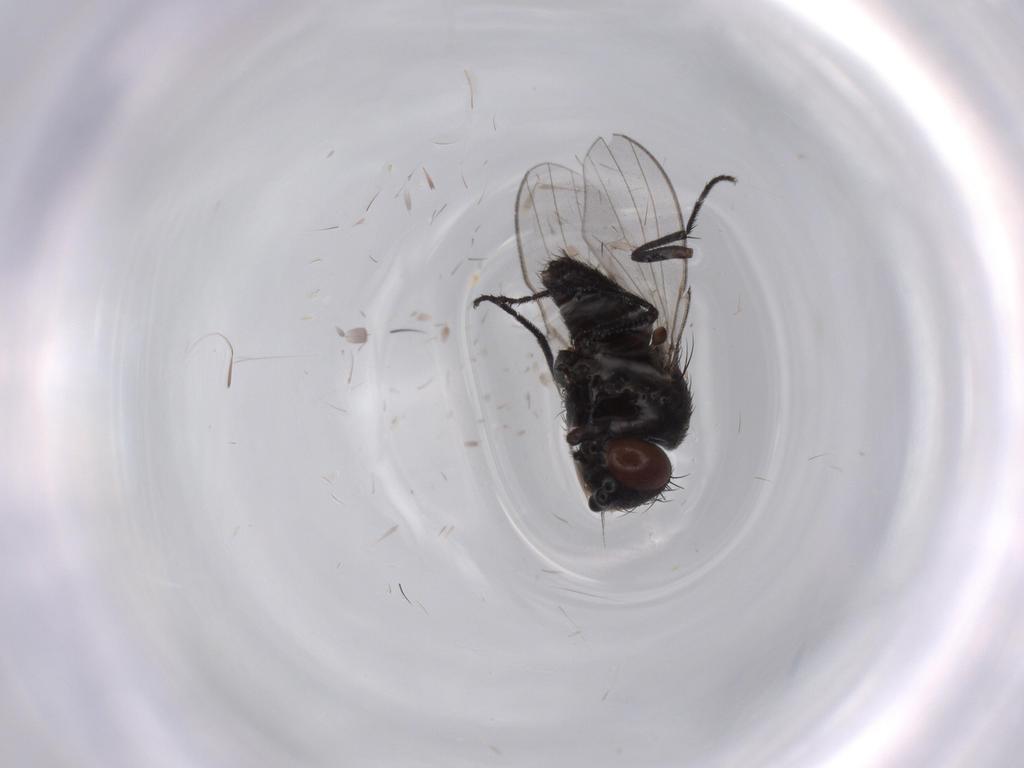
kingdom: Animalia
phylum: Arthropoda
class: Insecta
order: Diptera
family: Milichiidae
